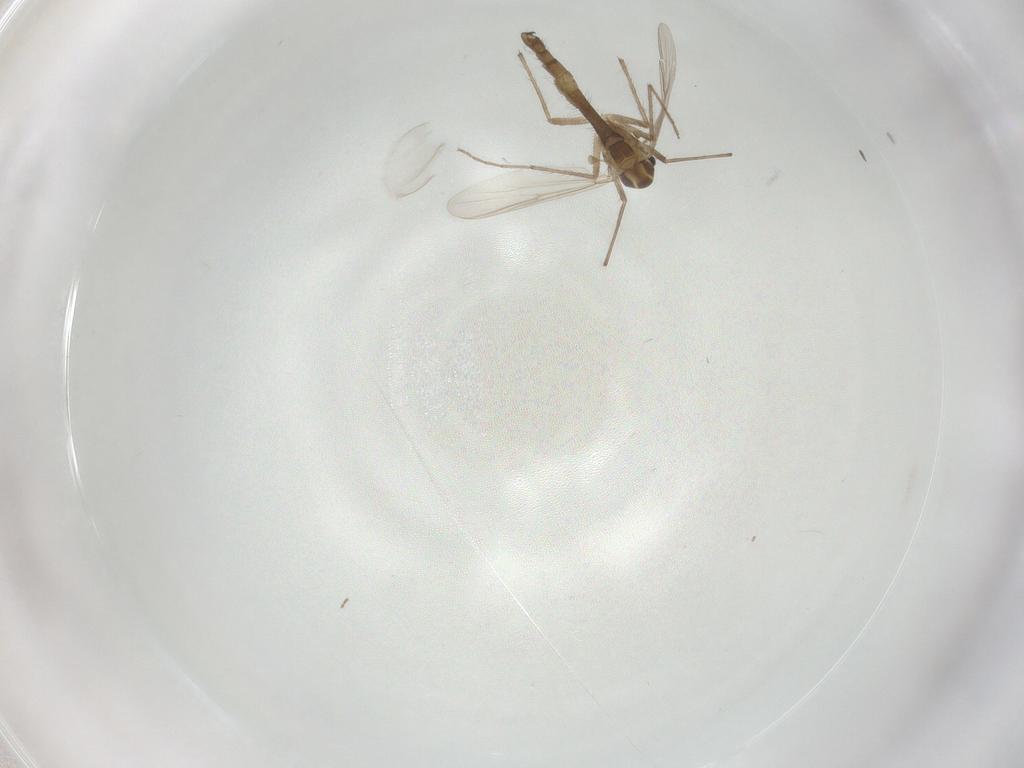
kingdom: Animalia
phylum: Arthropoda
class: Insecta
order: Diptera
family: Chironomidae
